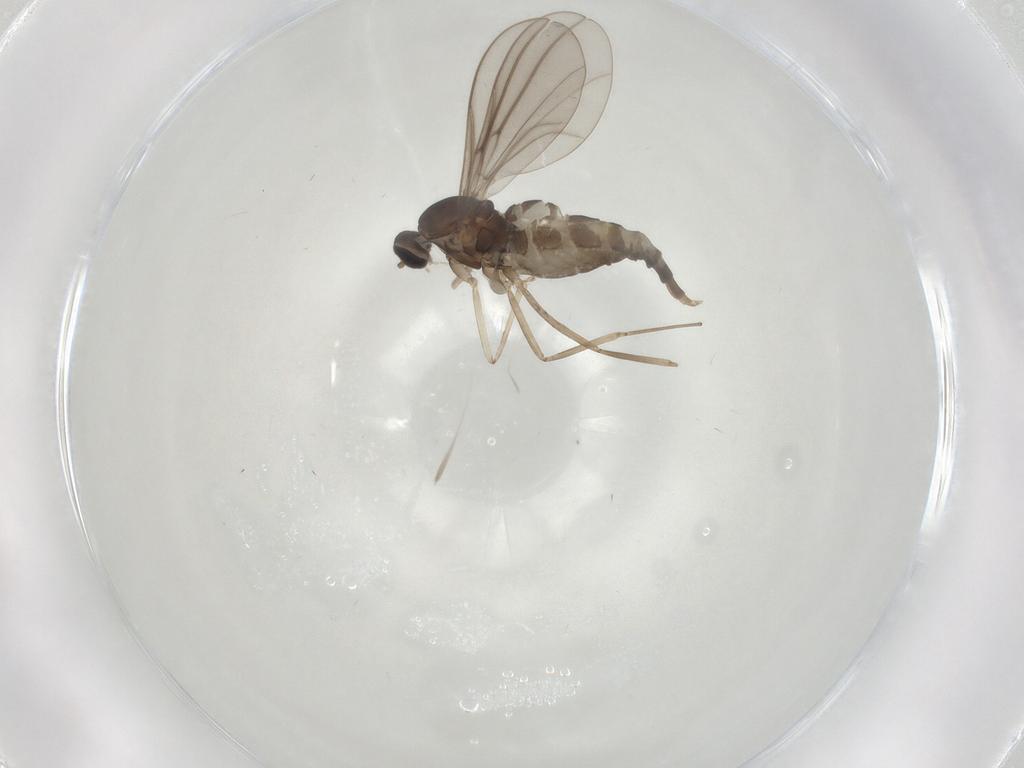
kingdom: Animalia
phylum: Arthropoda
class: Insecta
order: Diptera
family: Cecidomyiidae
